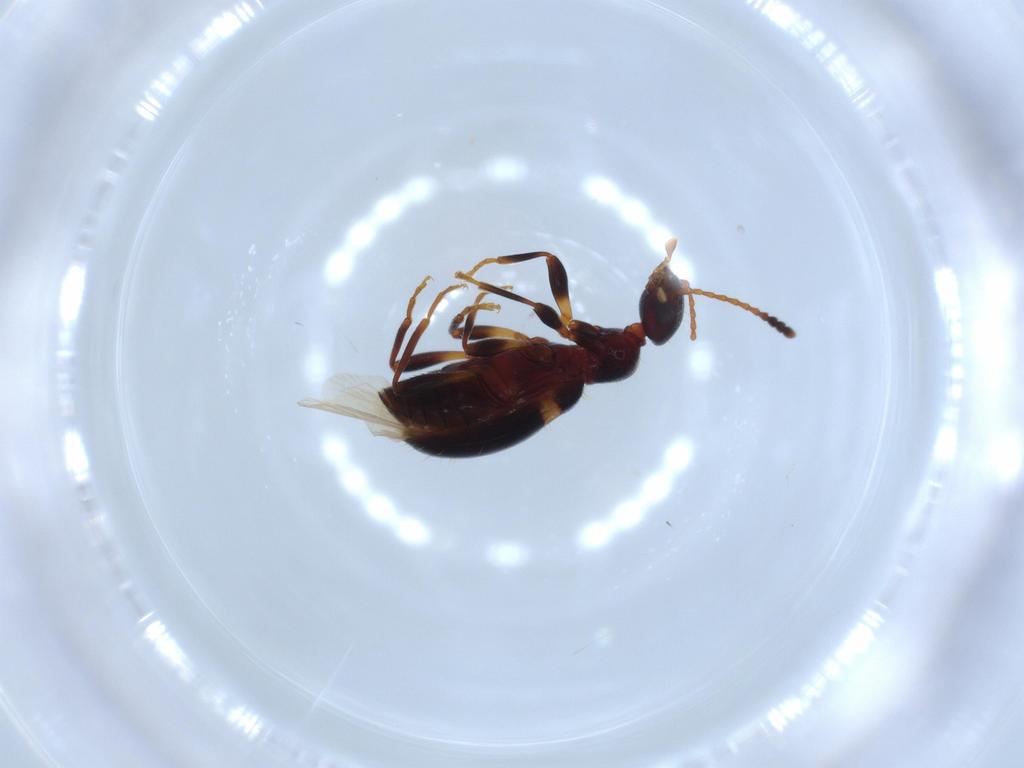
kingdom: Animalia
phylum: Arthropoda
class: Insecta
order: Coleoptera
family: Anthicidae
